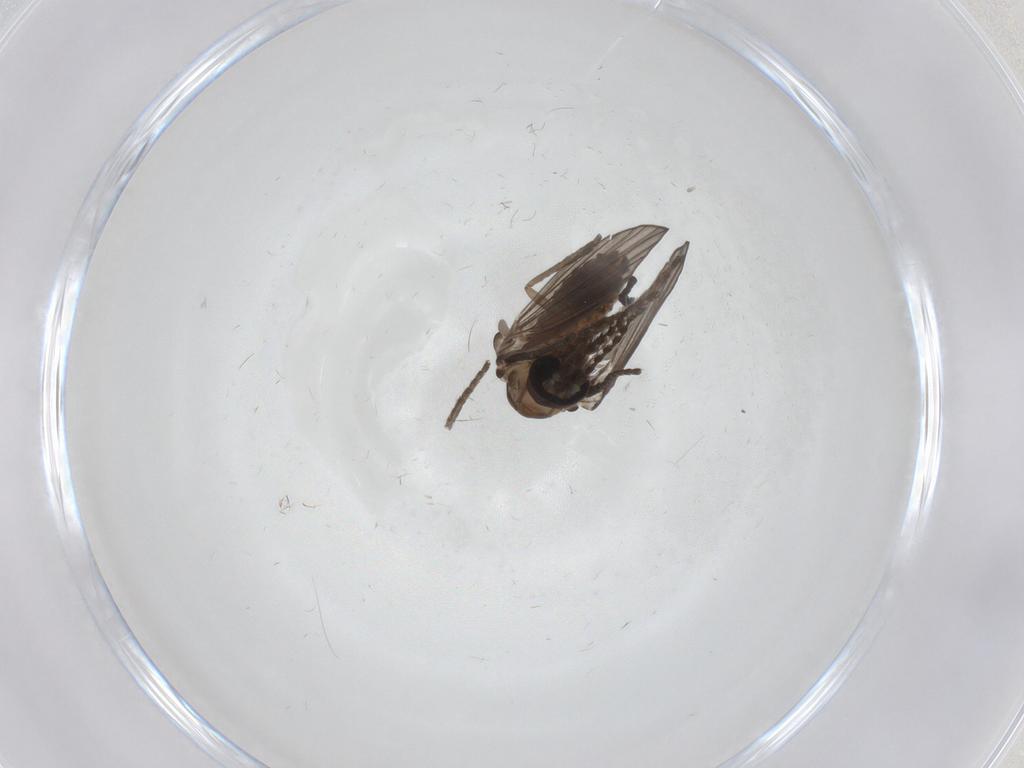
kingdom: Animalia
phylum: Arthropoda
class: Insecta
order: Diptera
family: Psychodidae
